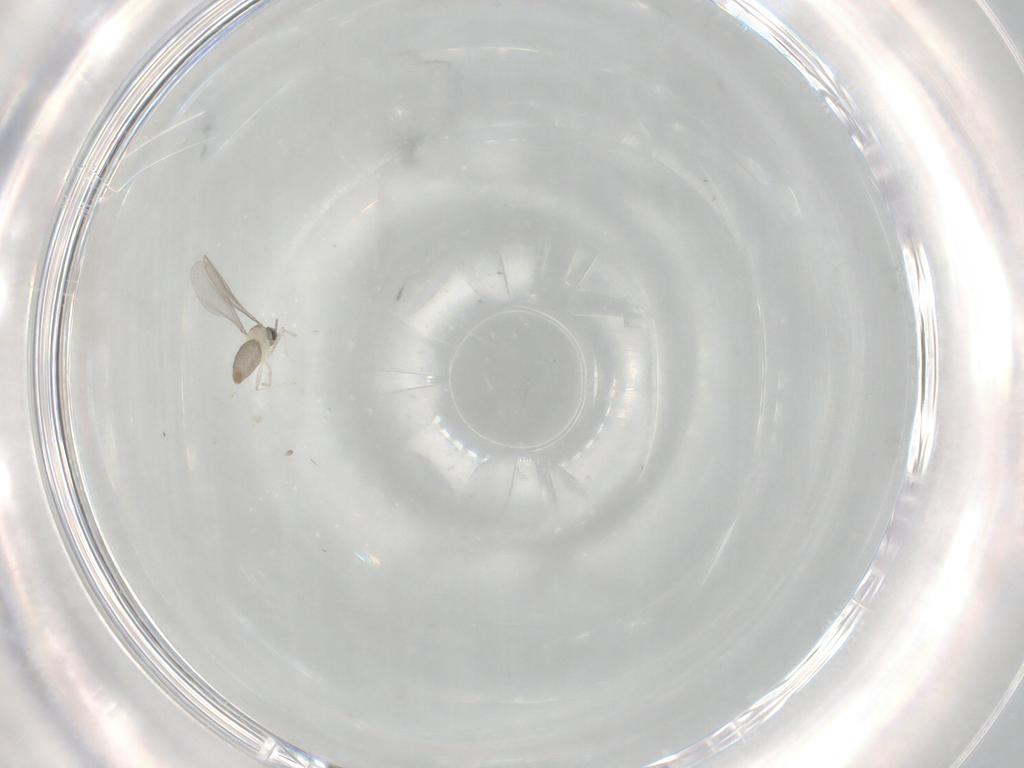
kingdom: Animalia
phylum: Arthropoda
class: Insecta
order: Diptera
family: Cecidomyiidae
